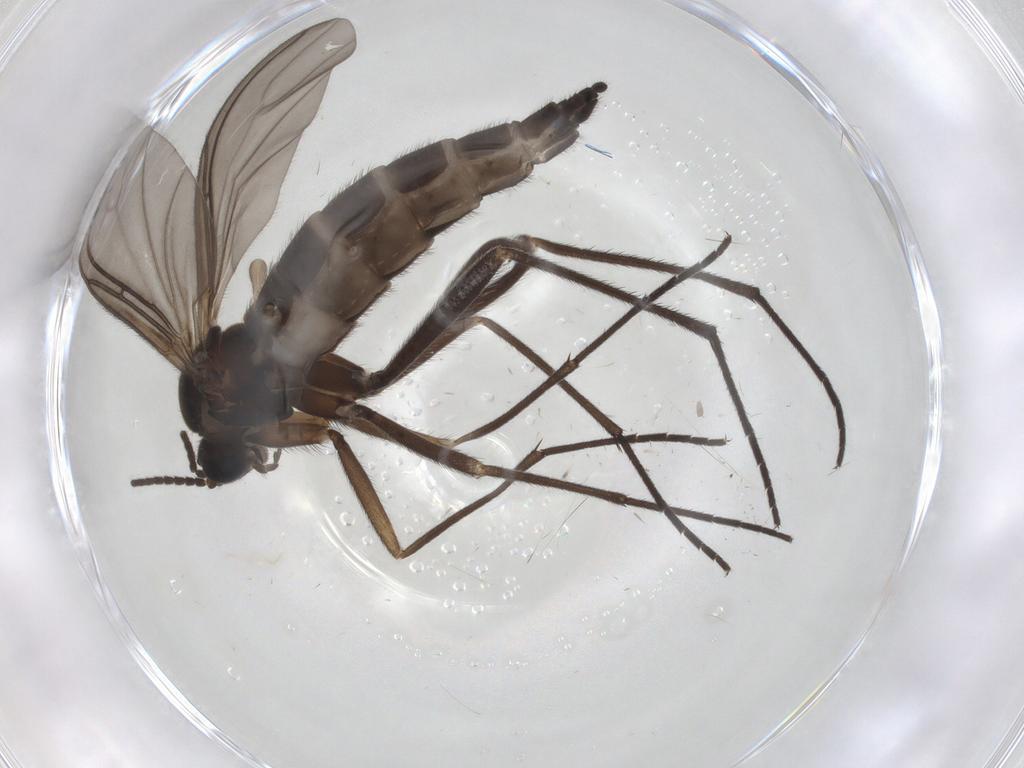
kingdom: Animalia
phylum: Arthropoda
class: Insecta
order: Diptera
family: Sciaridae
